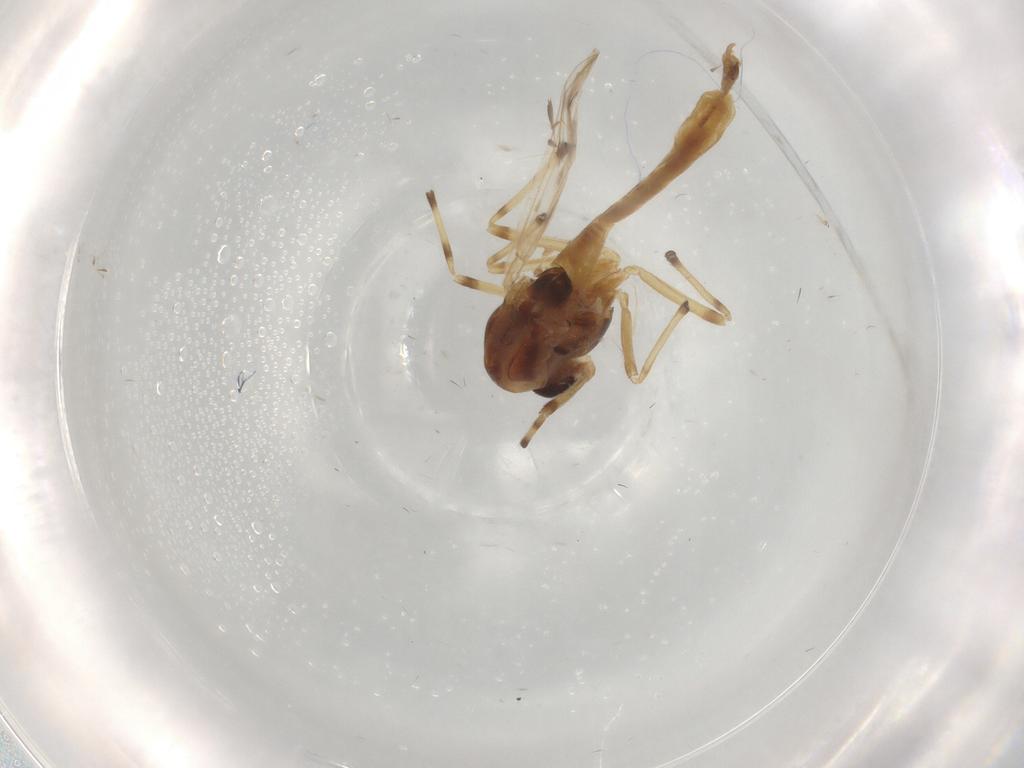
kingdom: Animalia
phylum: Arthropoda
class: Insecta
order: Diptera
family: Chironomidae
